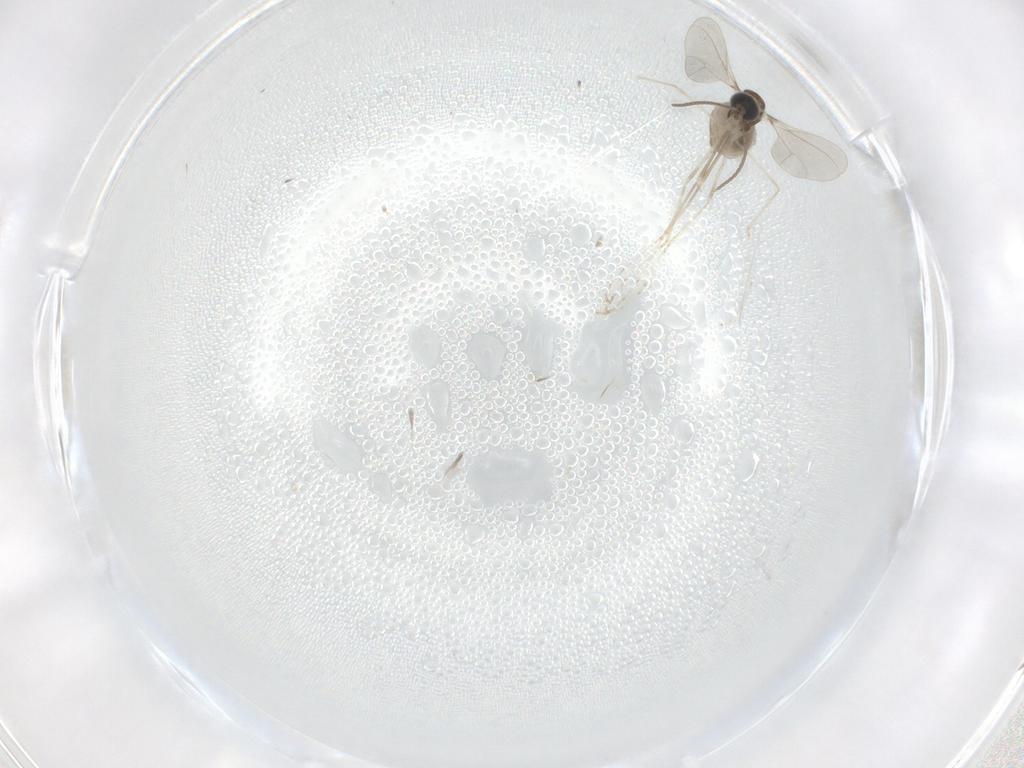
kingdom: Animalia
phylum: Arthropoda
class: Insecta
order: Diptera
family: Cecidomyiidae
